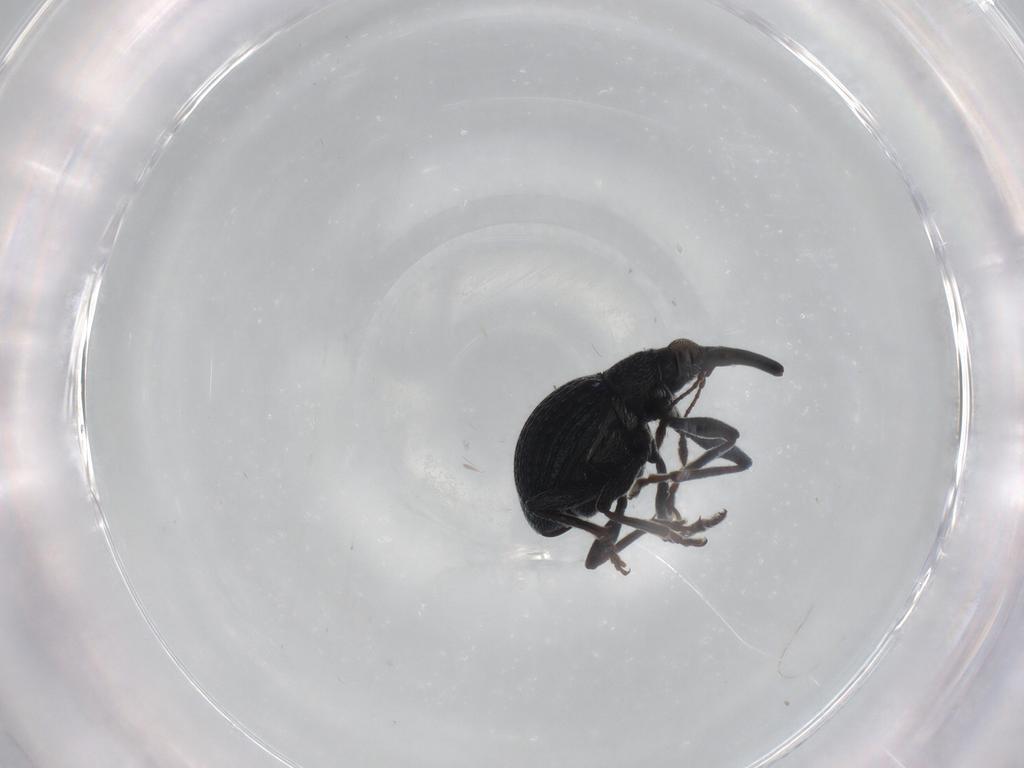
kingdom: Animalia
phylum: Arthropoda
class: Insecta
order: Coleoptera
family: Brentidae
